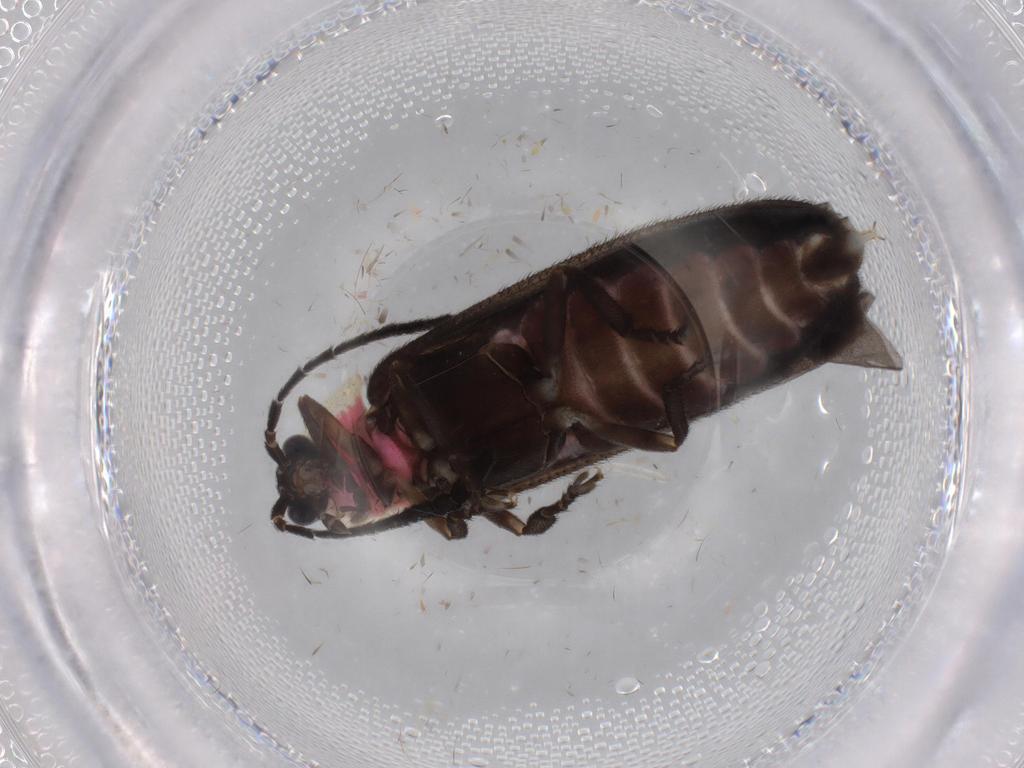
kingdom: Animalia
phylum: Arthropoda
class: Insecta
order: Coleoptera
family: Lampyridae
